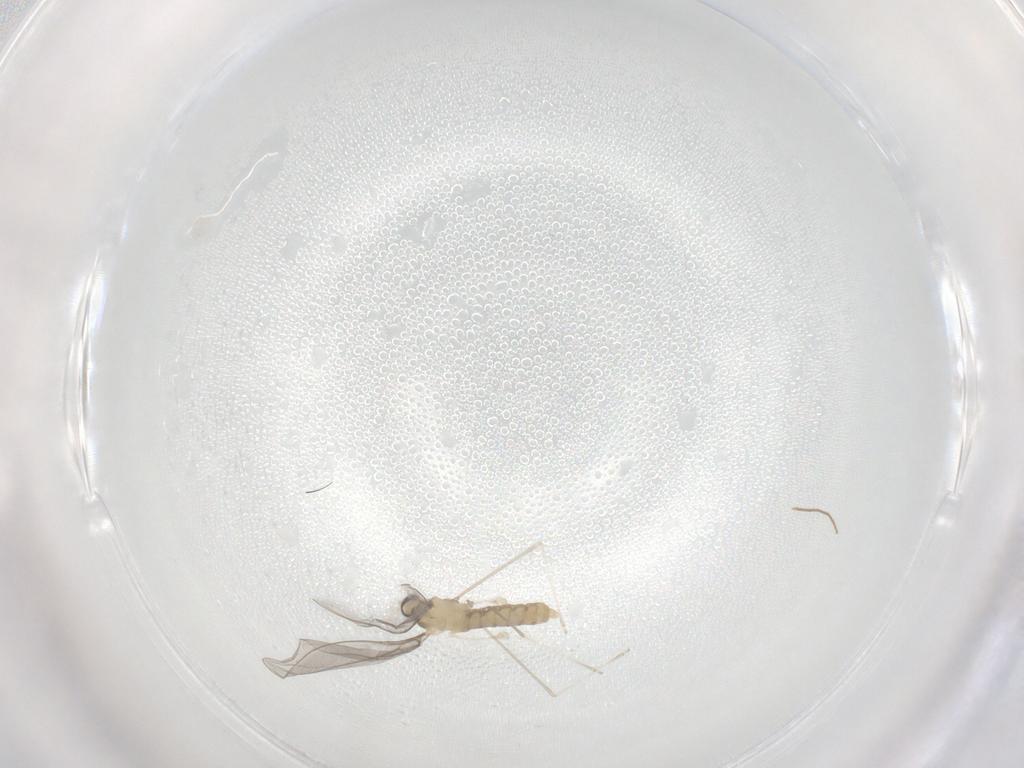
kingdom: Animalia
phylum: Arthropoda
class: Insecta
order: Diptera
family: Cecidomyiidae
